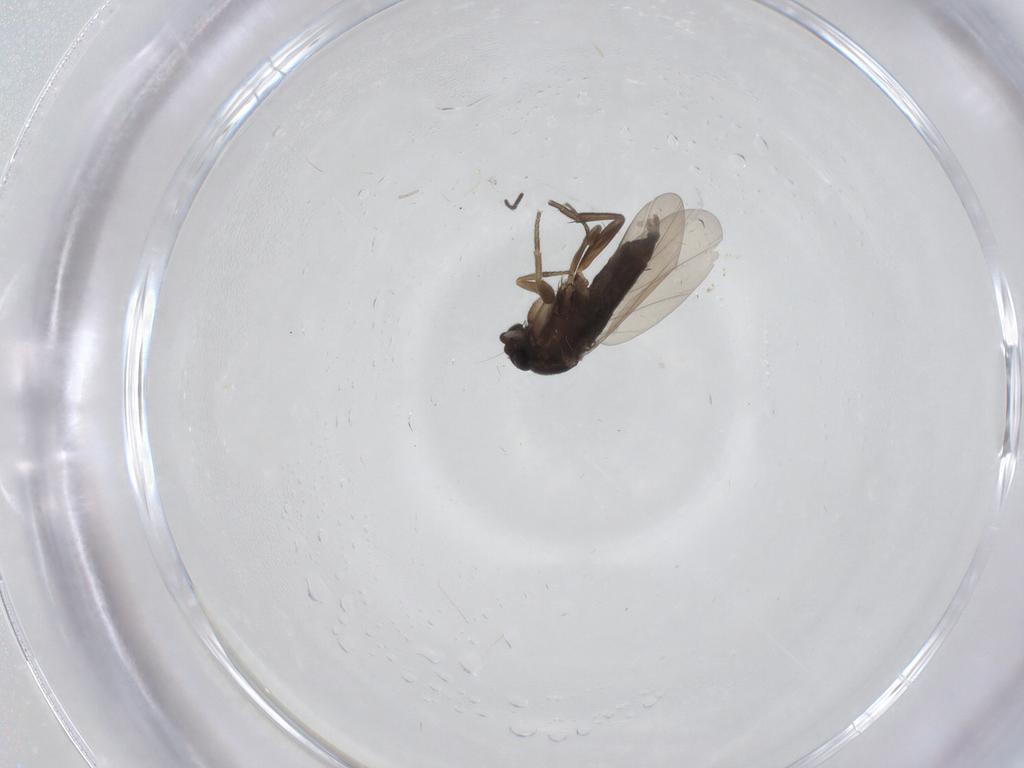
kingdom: Animalia
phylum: Arthropoda
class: Insecta
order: Diptera
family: Phoridae
